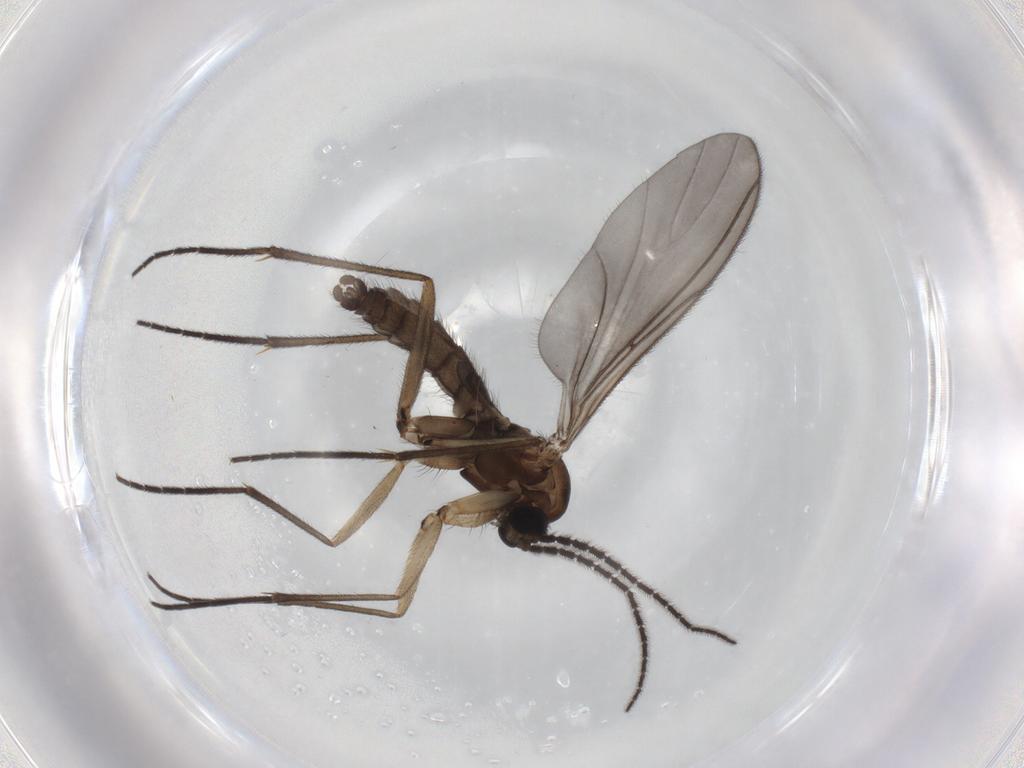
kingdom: Animalia
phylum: Arthropoda
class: Insecta
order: Diptera
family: Sciaridae
